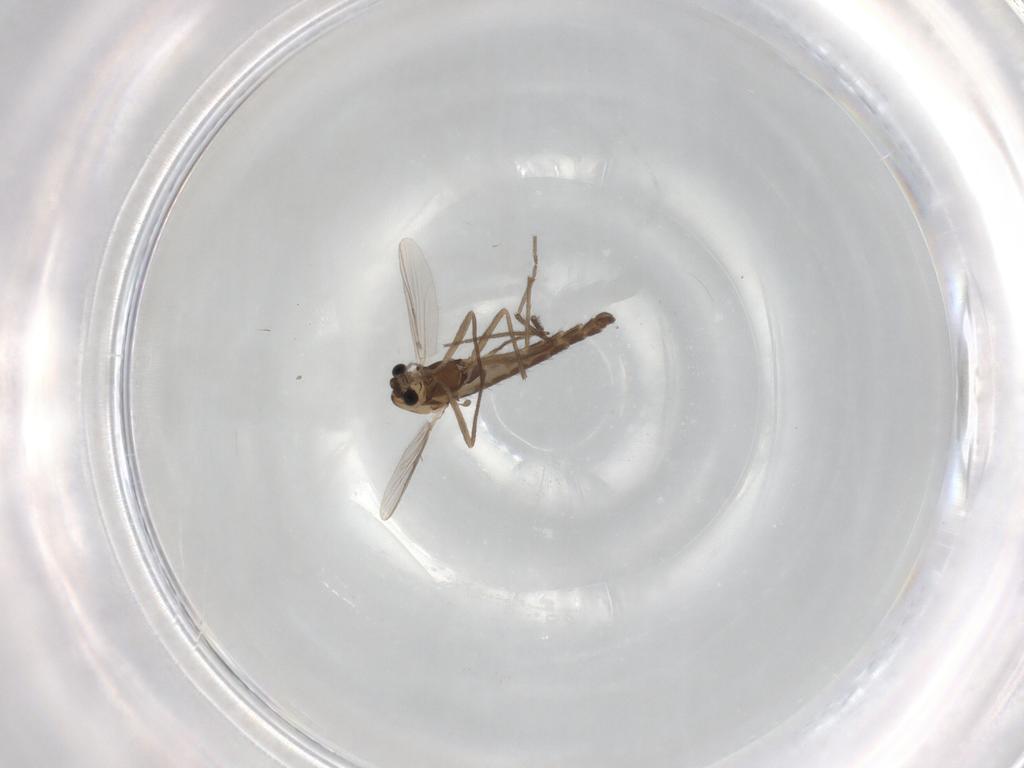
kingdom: Animalia
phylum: Arthropoda
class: Insecta
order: Diptera
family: Chironomidae
